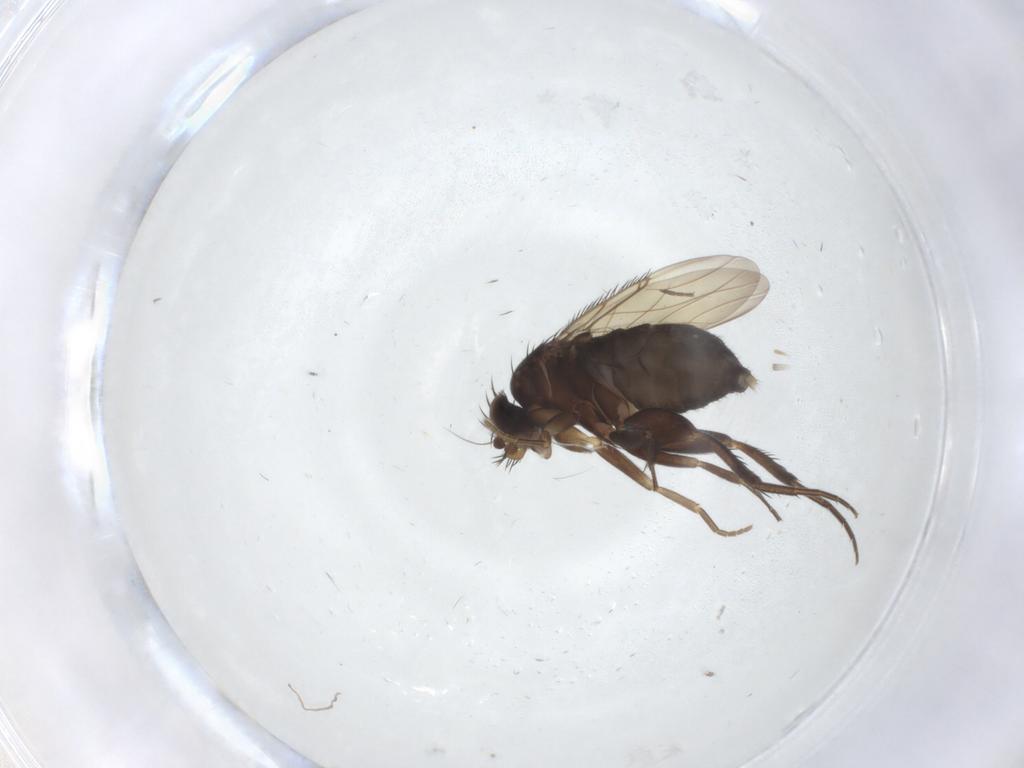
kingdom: Animalia
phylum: Arthropoda
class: Insecta
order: Diptera
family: Phoridae
